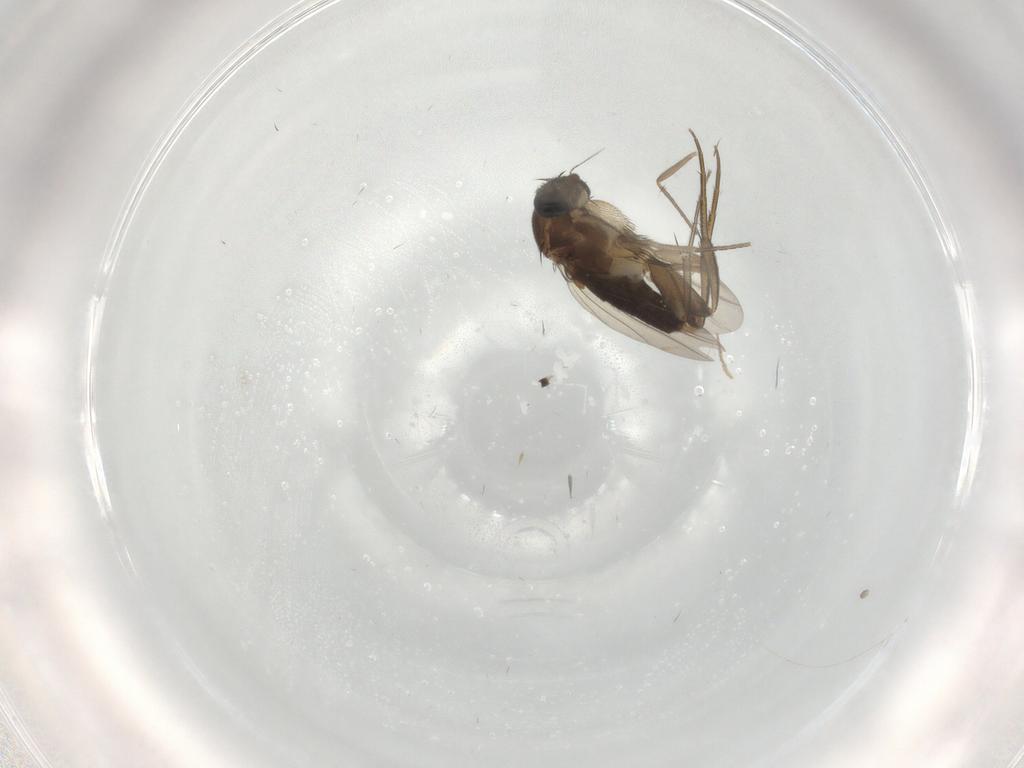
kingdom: Animalia
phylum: Arthropoda
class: Insecta
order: Diptera
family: Phoridae
